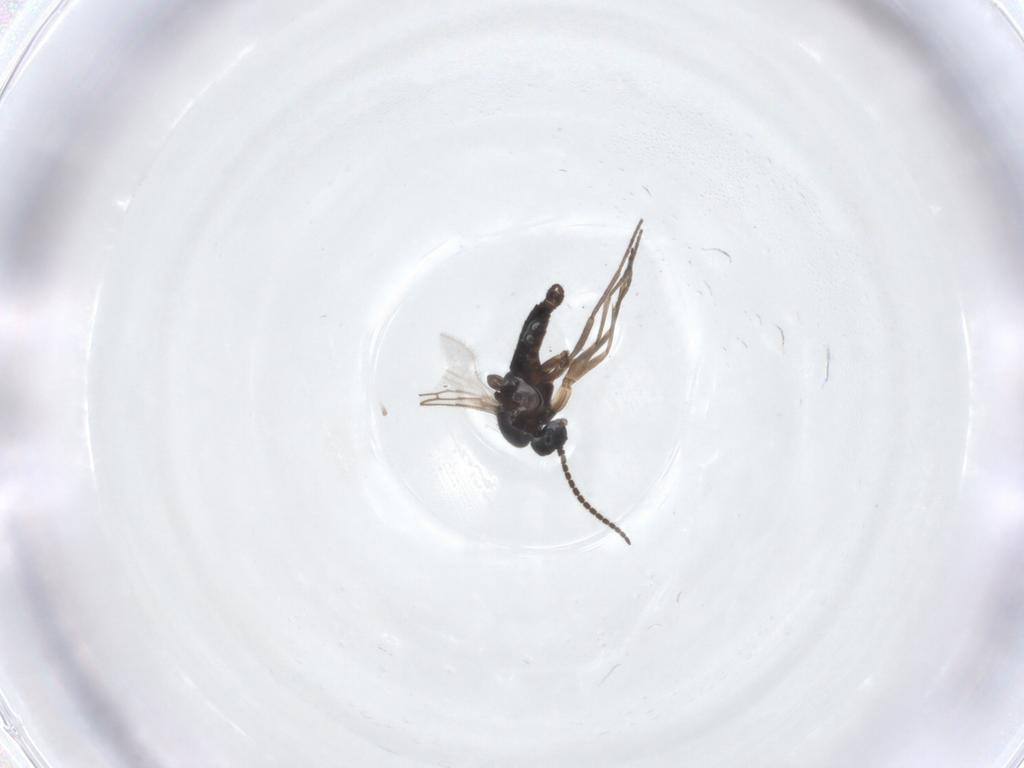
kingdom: Animalia
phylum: Arthropoda
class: Insecta
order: Diptera
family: Sciaridae
